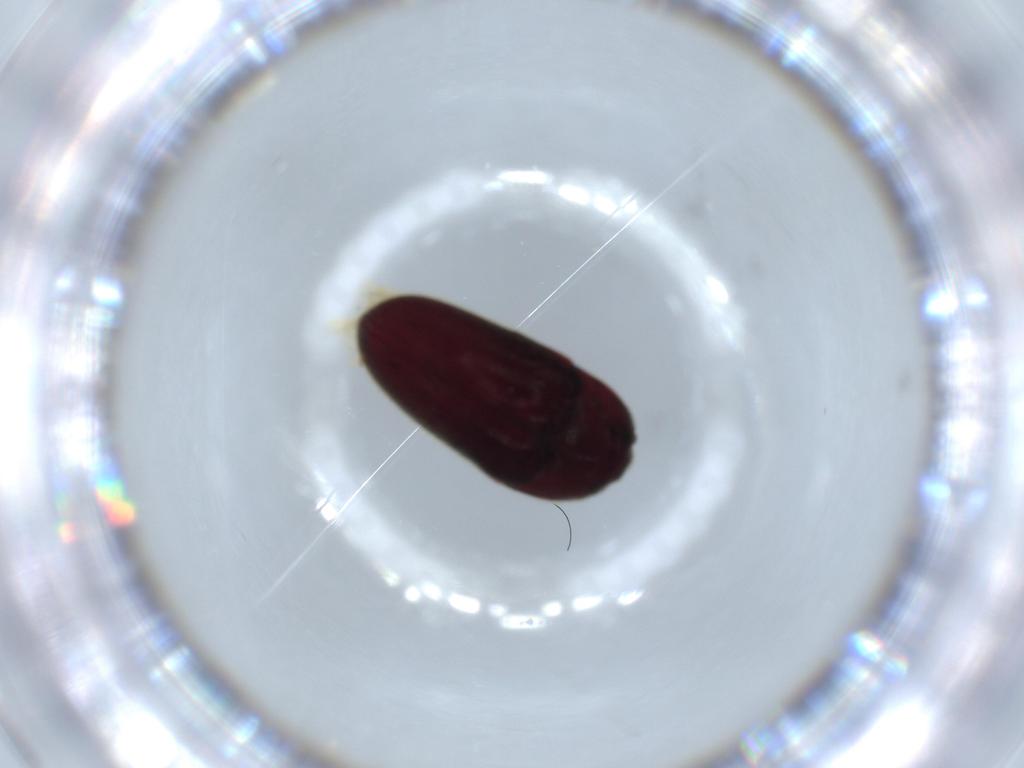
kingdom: Animalia
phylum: Arthropoda
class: Insecta
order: Coleoptera
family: Throscidae
